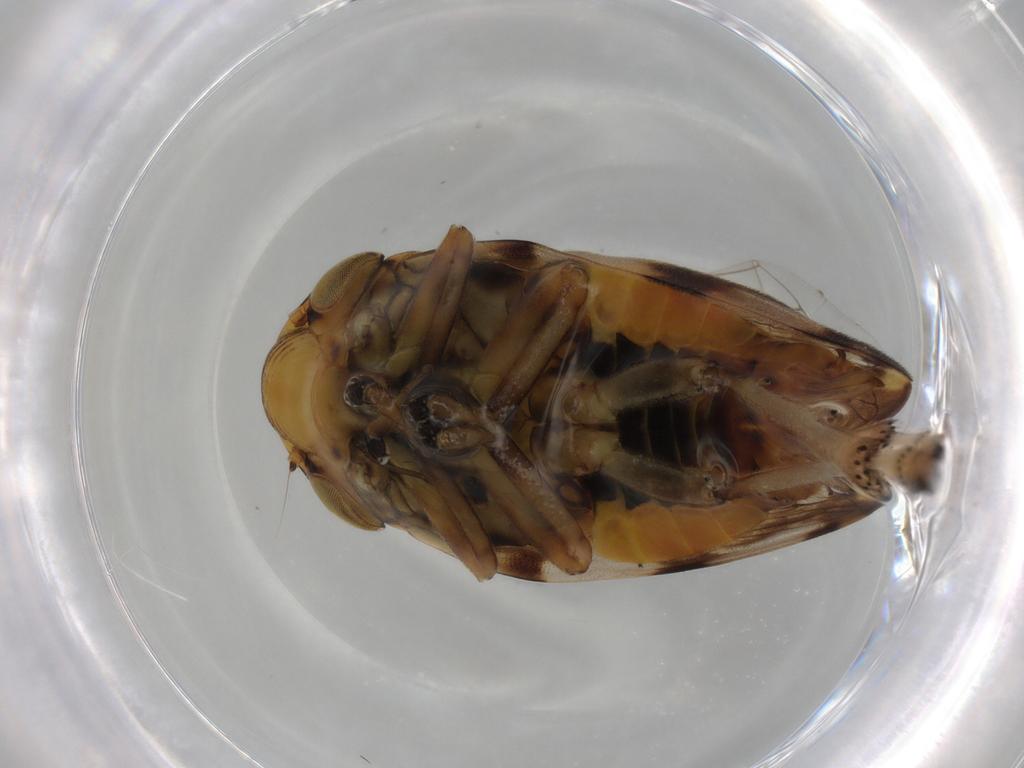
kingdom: Animalia
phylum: Arthropoda
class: Insecta
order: Hemiptera
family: Aphrophoridae
